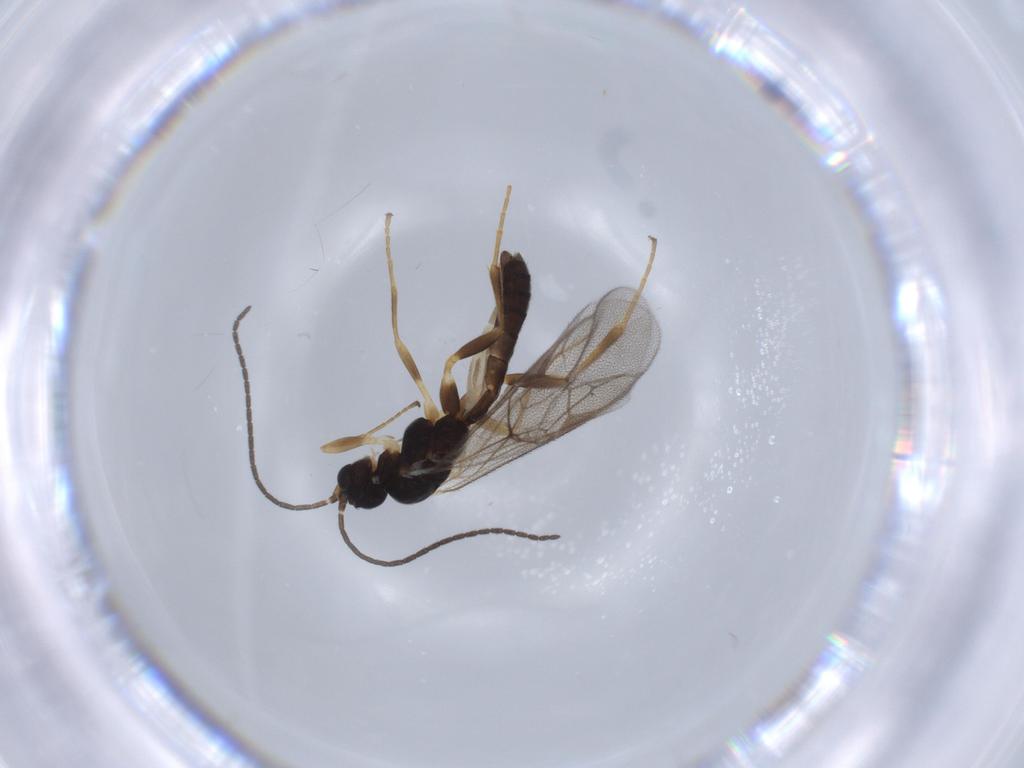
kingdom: Animalia
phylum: Arthropoda
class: Insecta
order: Hymenoptera
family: Ichneumonidae
